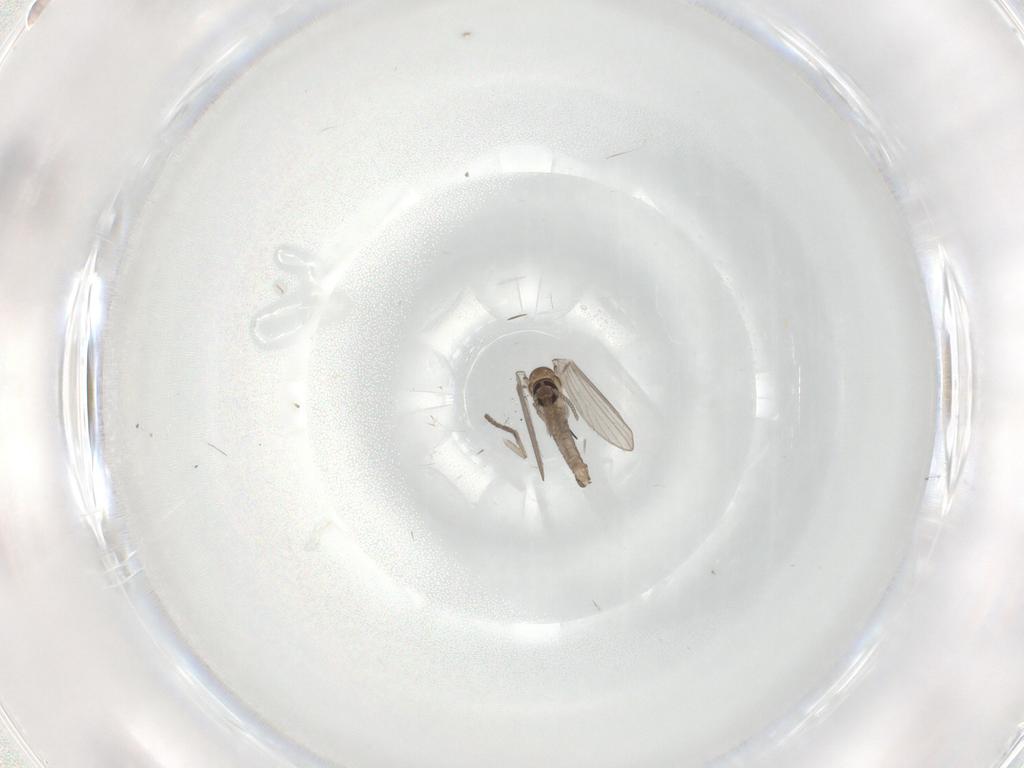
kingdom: Animalia
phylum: Arthropoda
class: Insecta
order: Diptera
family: Psychodidae
